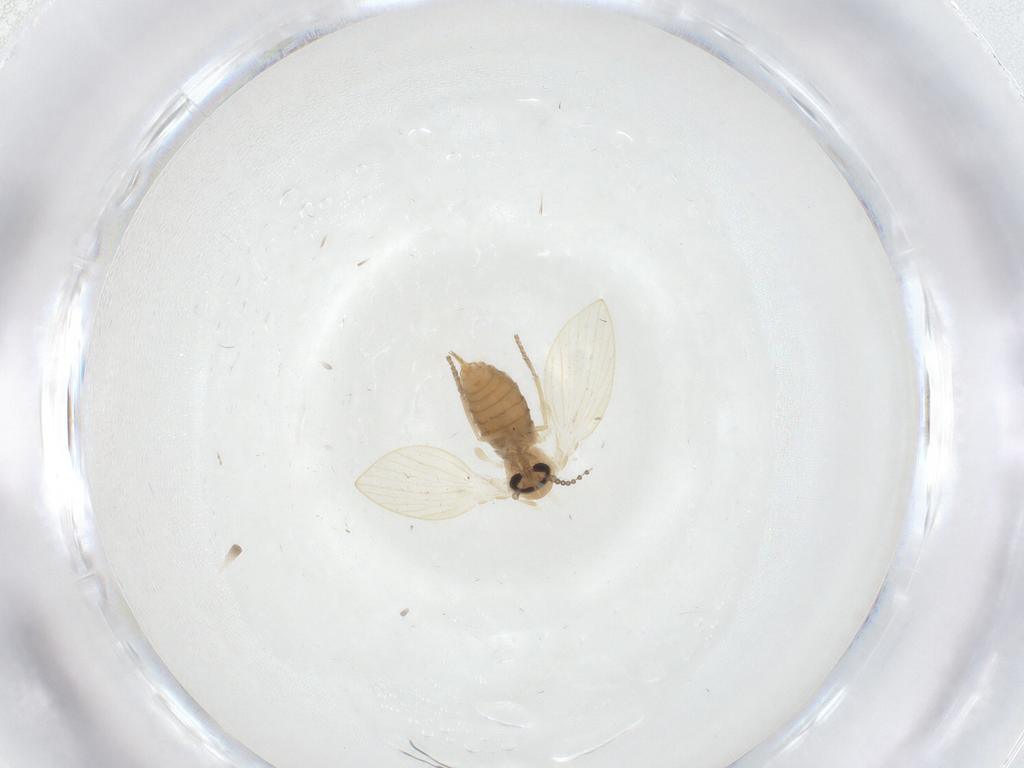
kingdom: Animalia
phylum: Arthropoda
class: Insecta
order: Diptera
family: Psychodidae
